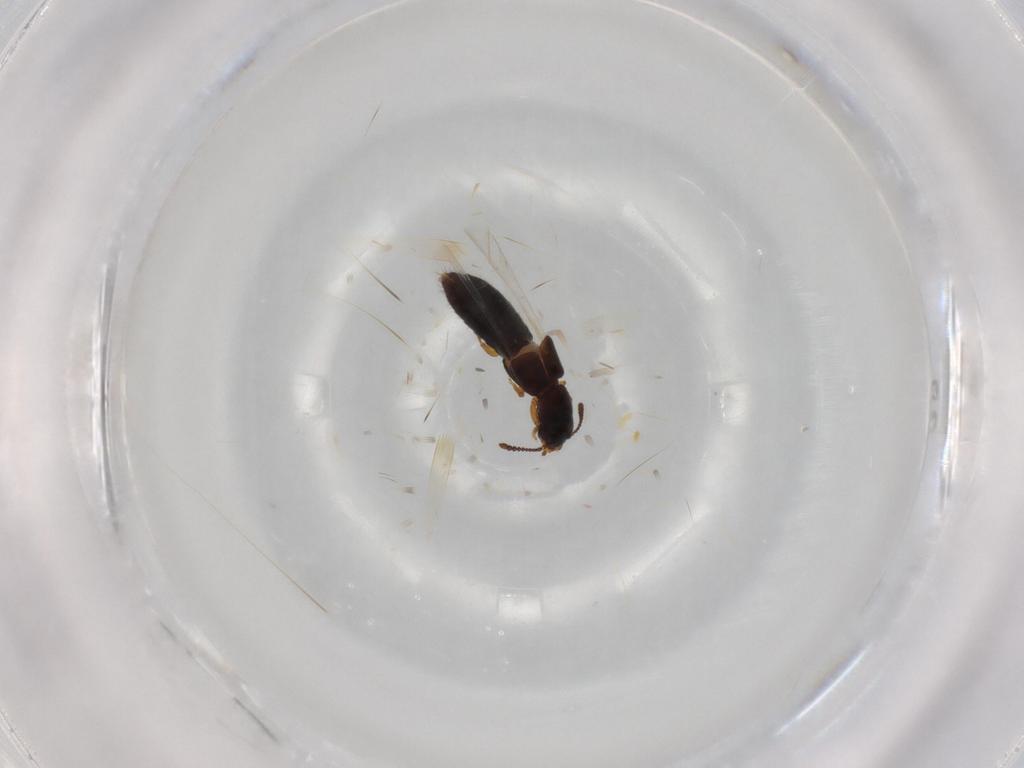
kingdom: Animalia
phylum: Arthropoda
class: Insecta
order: Coleoptera
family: Staphylinidae
